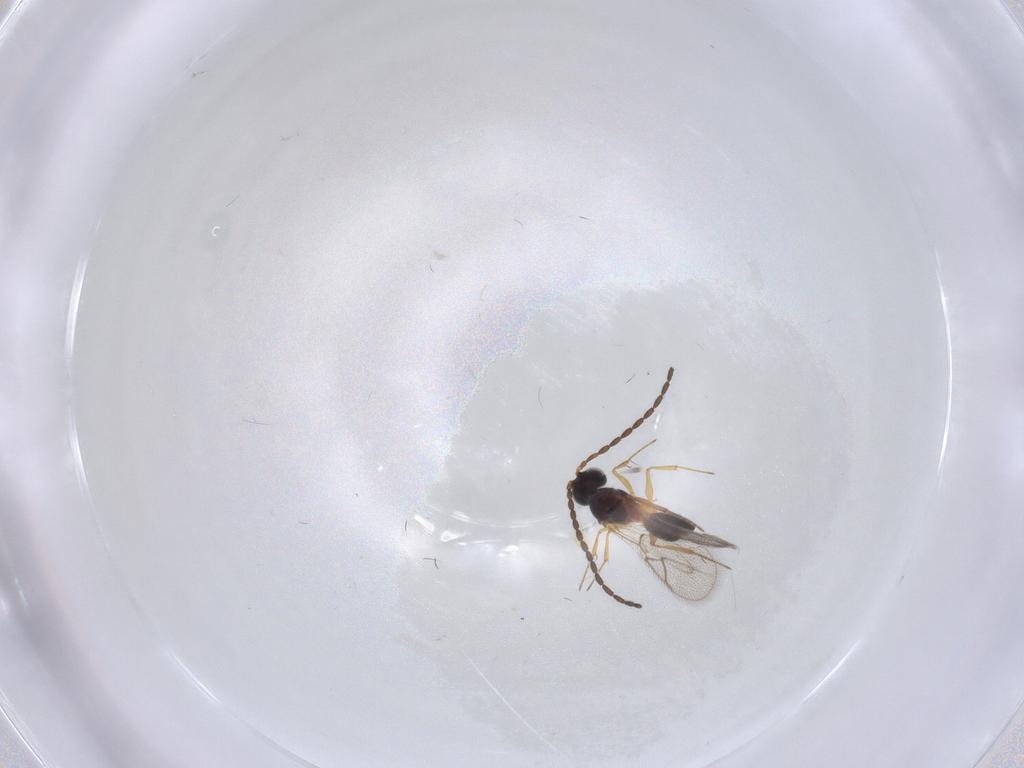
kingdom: Animalia
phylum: Arthropoda
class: Insecta
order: Hymenoptera
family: Figitidae
